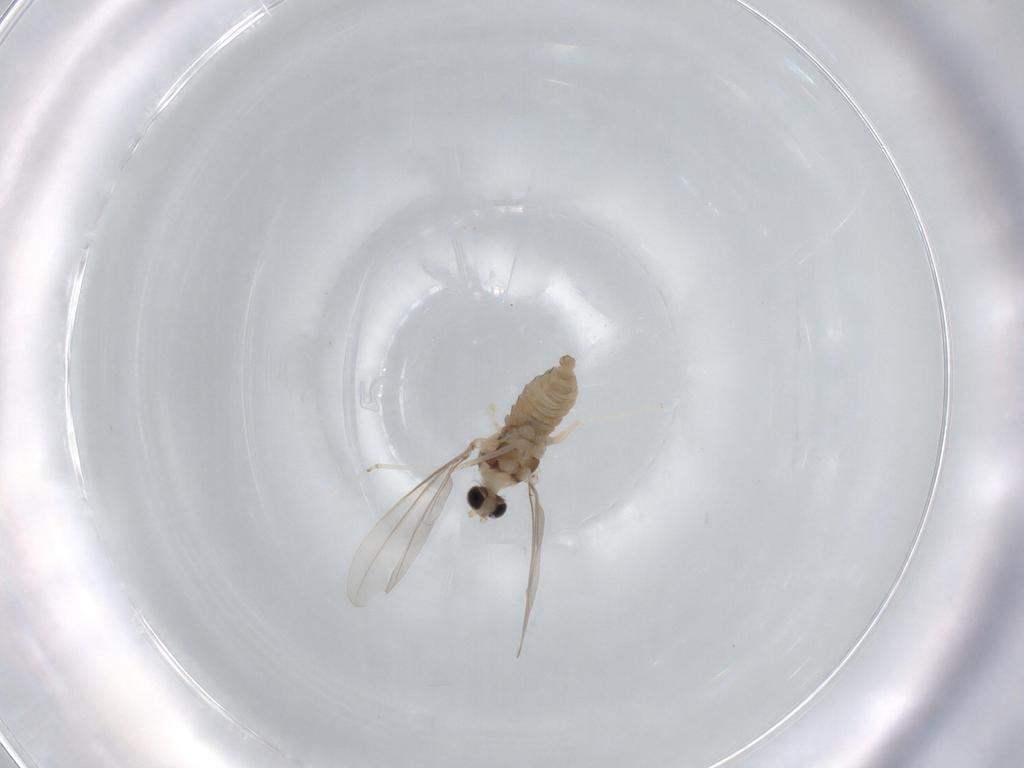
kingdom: Animalia
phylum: Arthropoda
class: Insecta
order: Diptera
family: Cecidomyiidae
